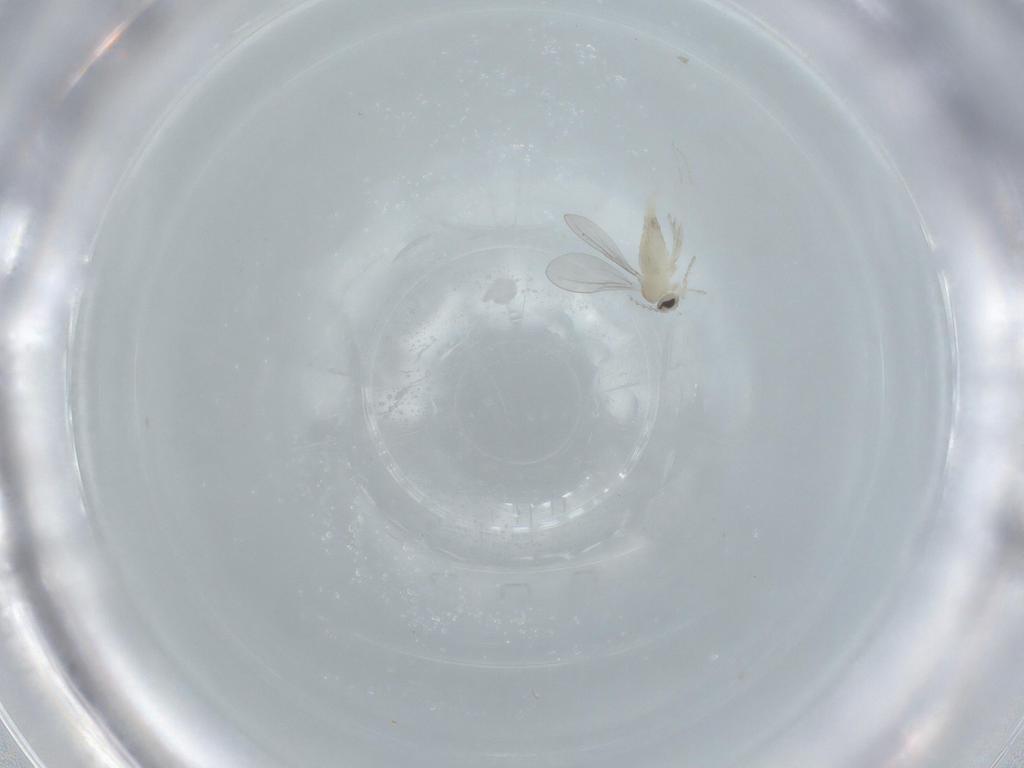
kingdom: Animalia
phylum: Arthropoda
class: Insecta
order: Diptera
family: Cecidomyiidae
